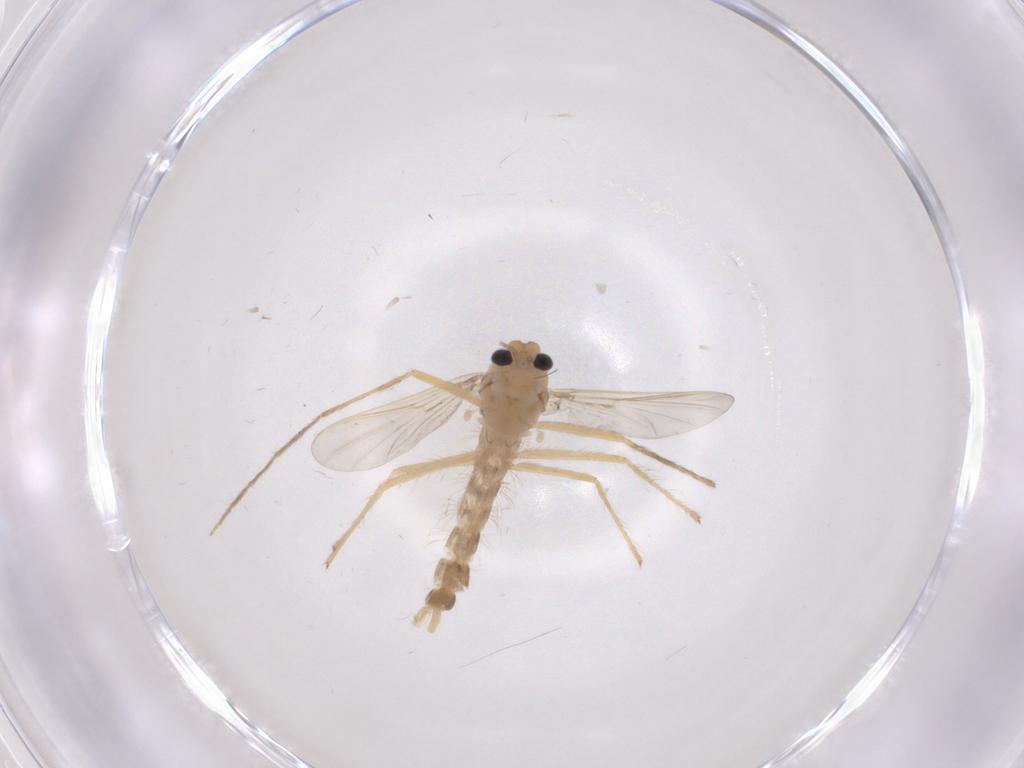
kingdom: Animalia
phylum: Arthropoda
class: Insecta
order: Diptera
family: Chironomidae
